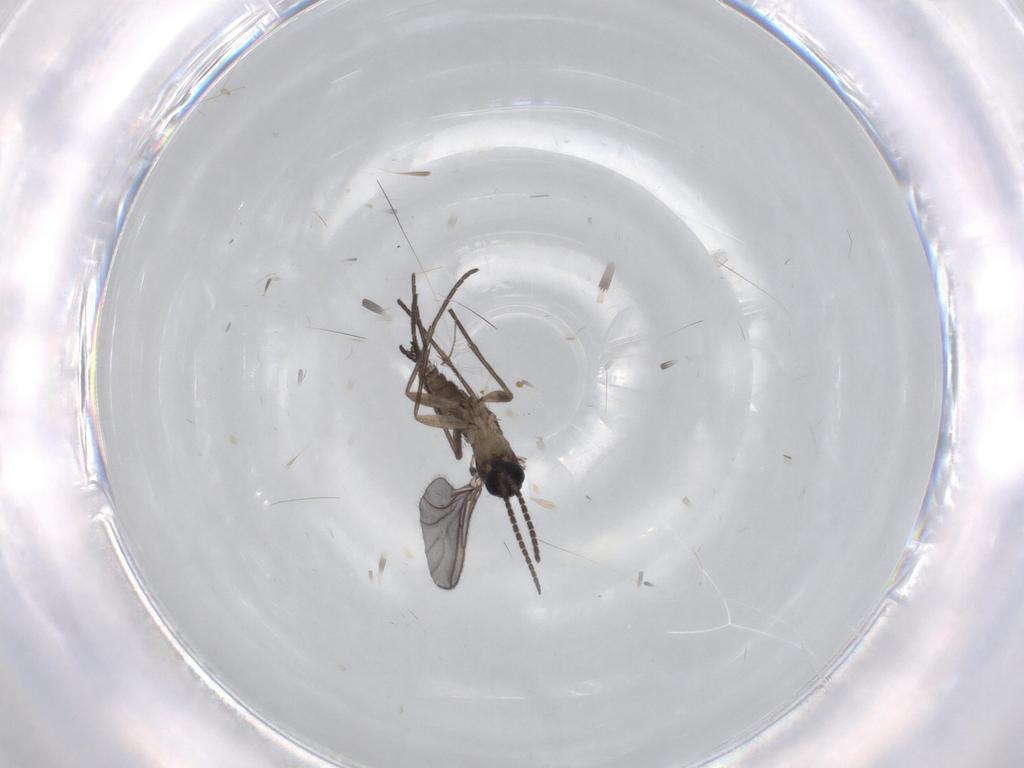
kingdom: Animalia
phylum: Arthropoda
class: Insecta
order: Diptera
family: Sciaridae
